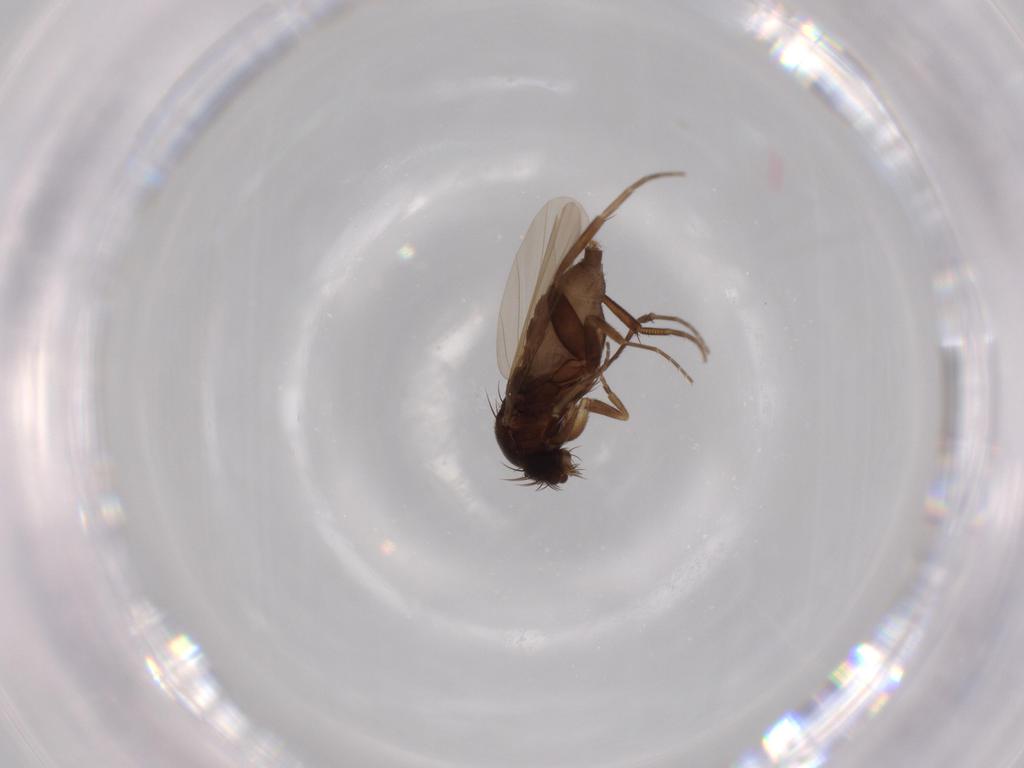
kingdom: Animalia
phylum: Arthropoda
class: Insecta
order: Diptera
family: Phoridae
